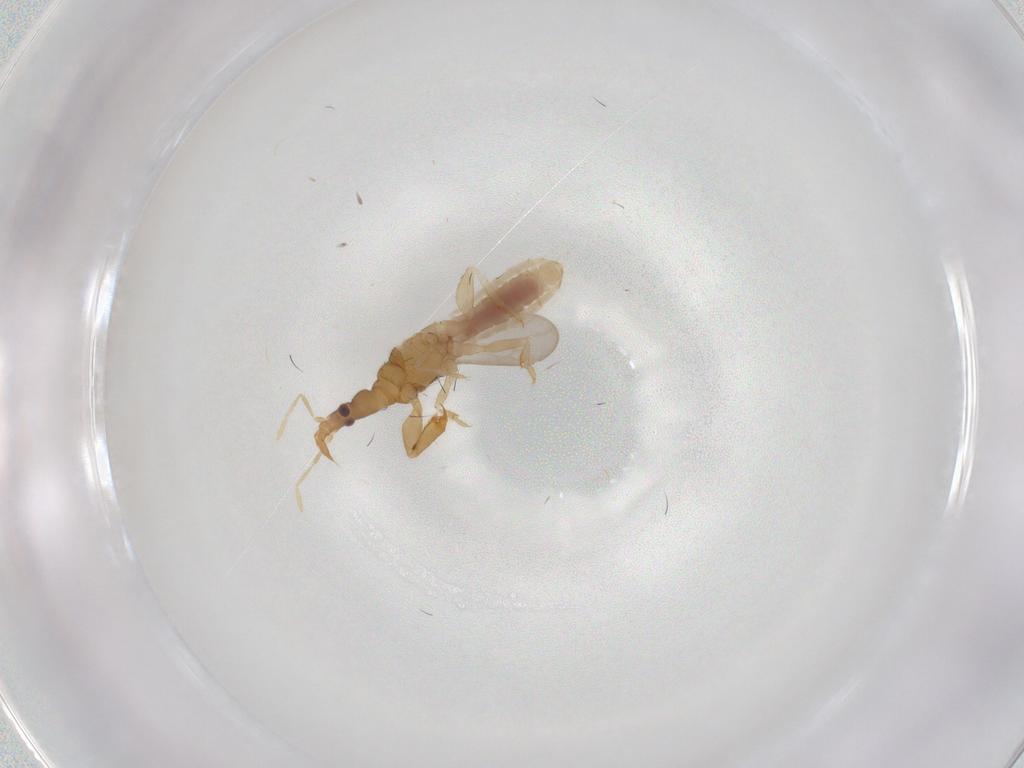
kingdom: Animalia
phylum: Arthropoda
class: Insecta
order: Hemiptera
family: Enicocephalidae
